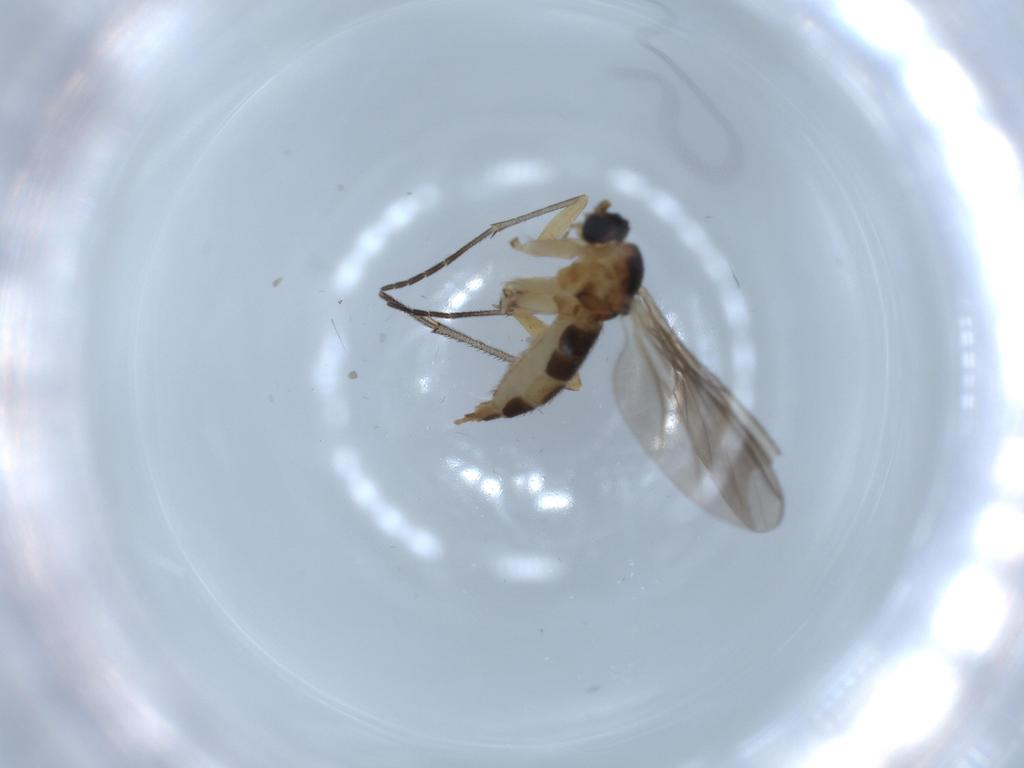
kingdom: Animalia
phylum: Arthropoda
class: Insecta
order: Diptera
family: Sciaridae
